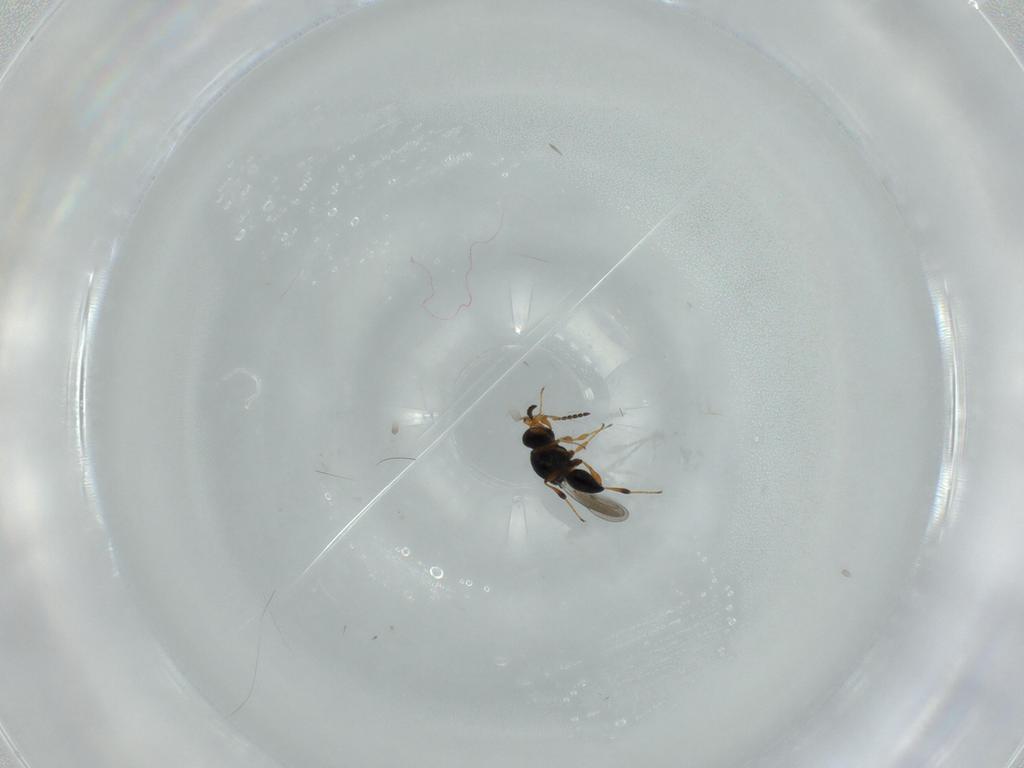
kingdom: Animalia
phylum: Arthropoda
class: Insecta
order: Hymenoptera
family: Platygastridae
